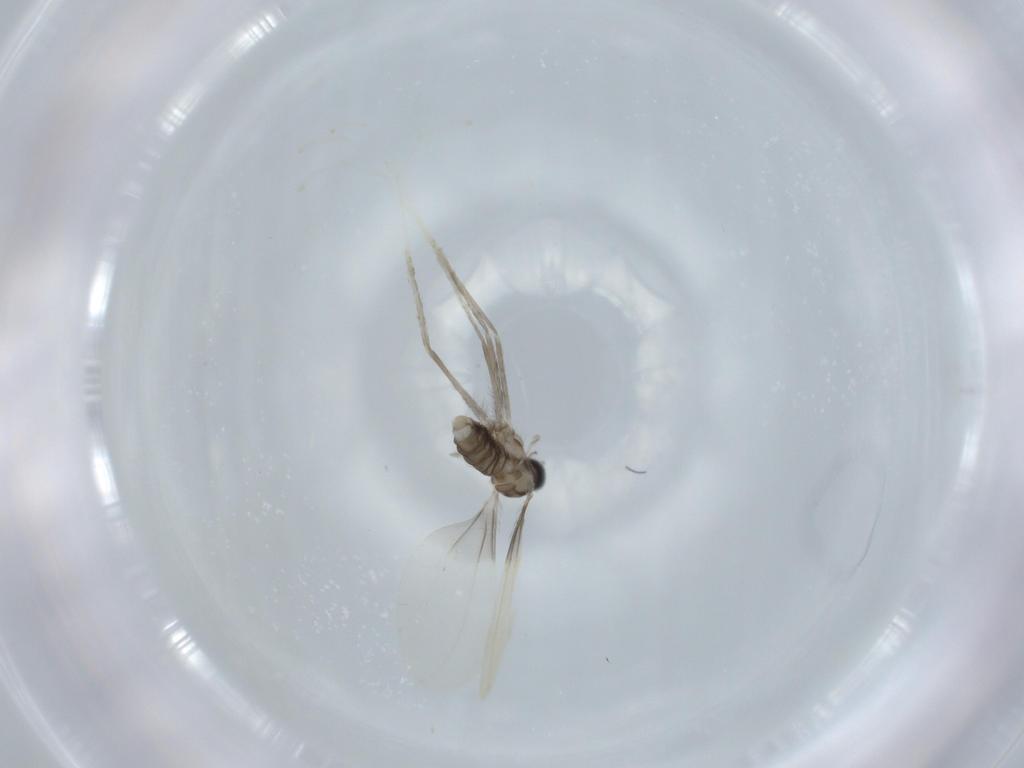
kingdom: Animalia
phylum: Arthropoda
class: Insecta
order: Diptera
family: Cecidomyiidae
